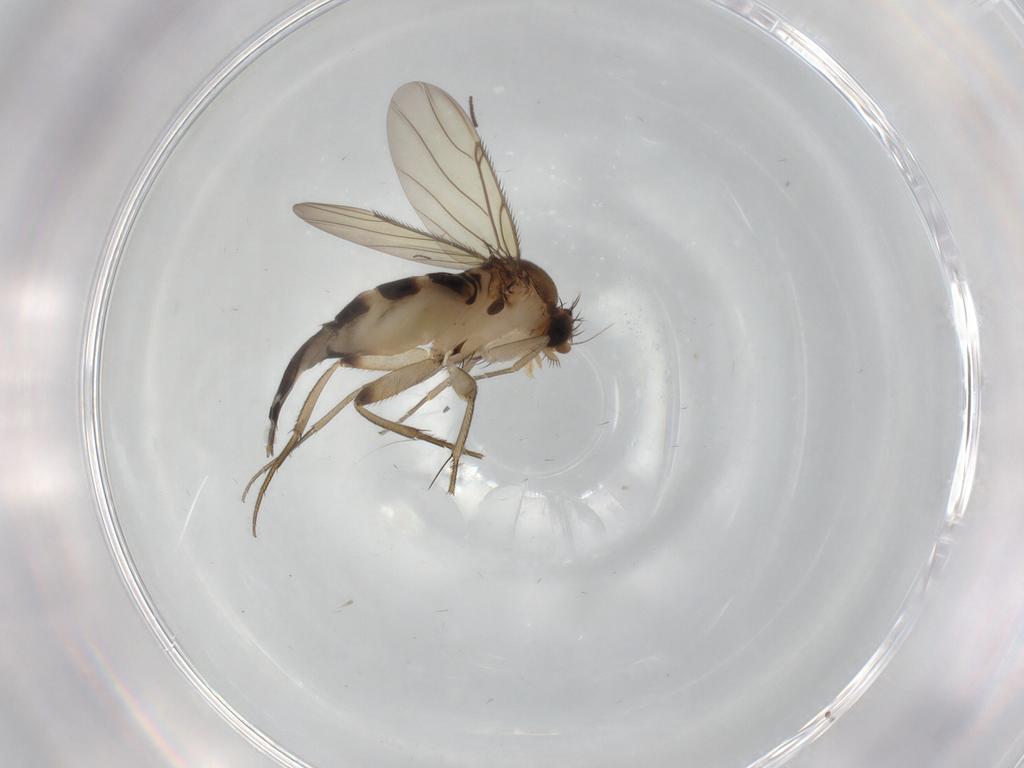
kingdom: Animalia
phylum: Arthropoda
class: Insecta
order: Diptera
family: Phoridae
